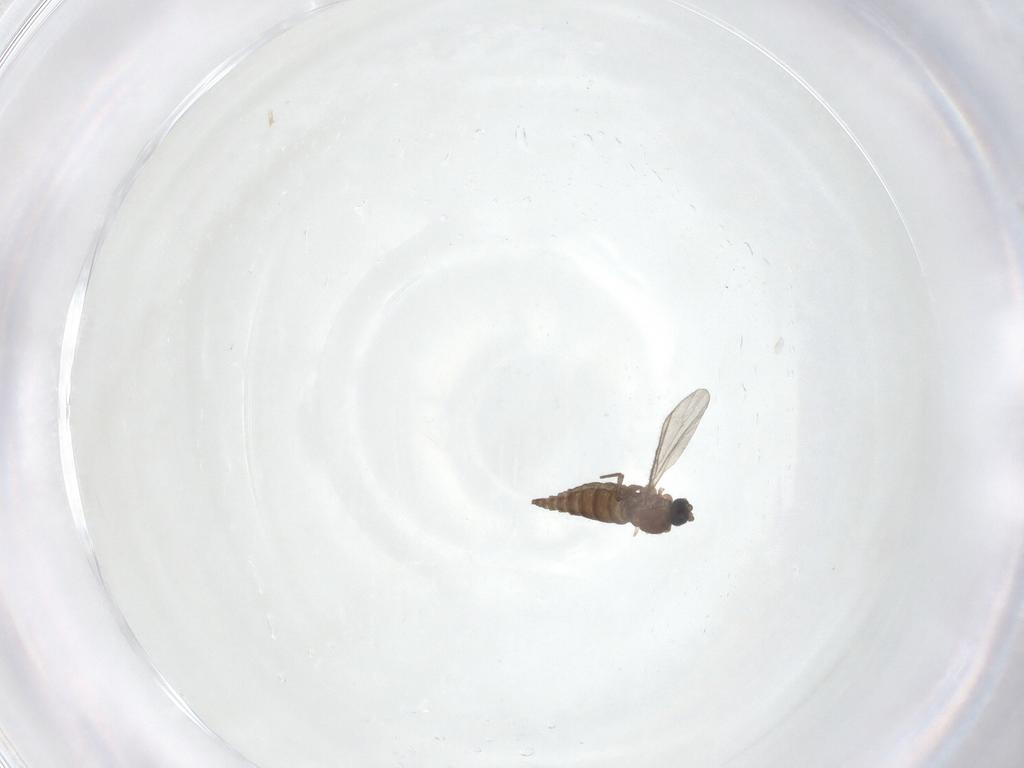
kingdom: Animalia
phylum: Arthropoda
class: Insecta
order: Diptera
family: Sciaridae
